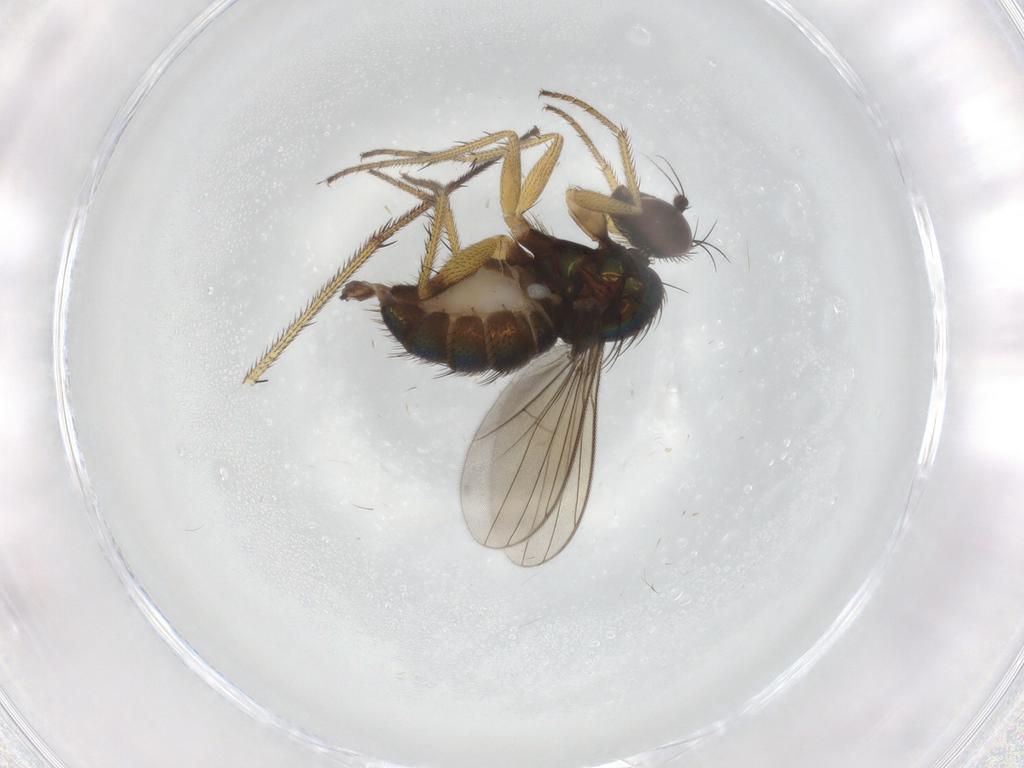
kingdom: Animalia
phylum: Arthropoda
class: Insecta
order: Diptera
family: Dolichopodidae
